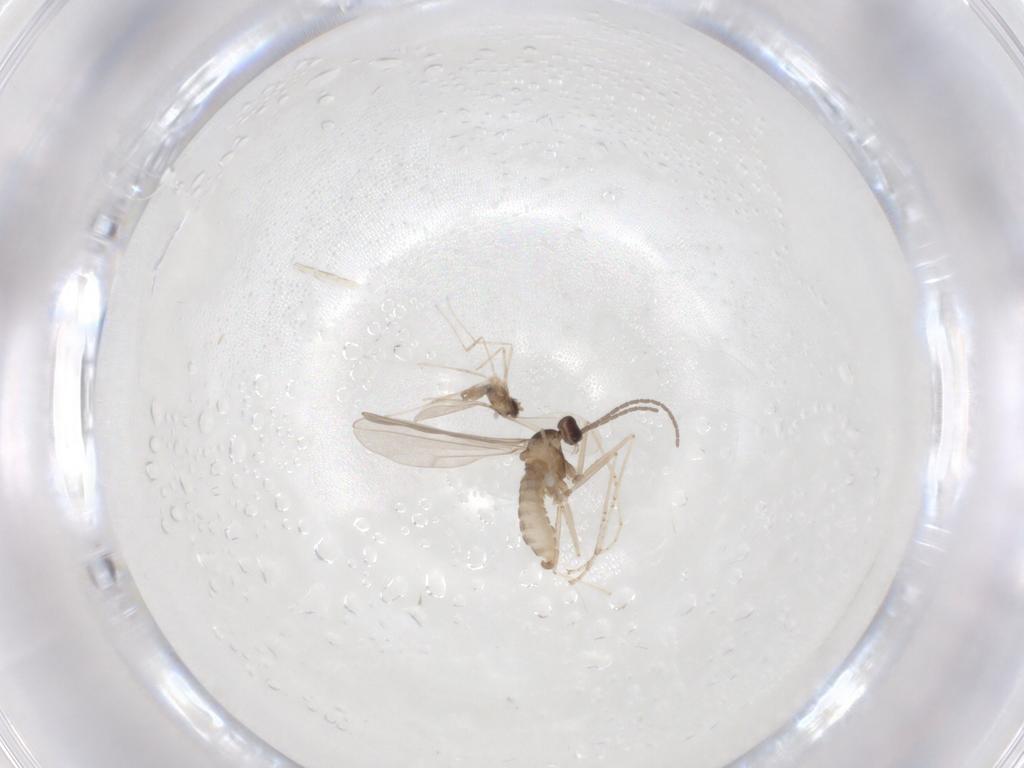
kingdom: Animalia
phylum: Arthropoda
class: Insecta
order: Diptera
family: Cecidomyiidae
